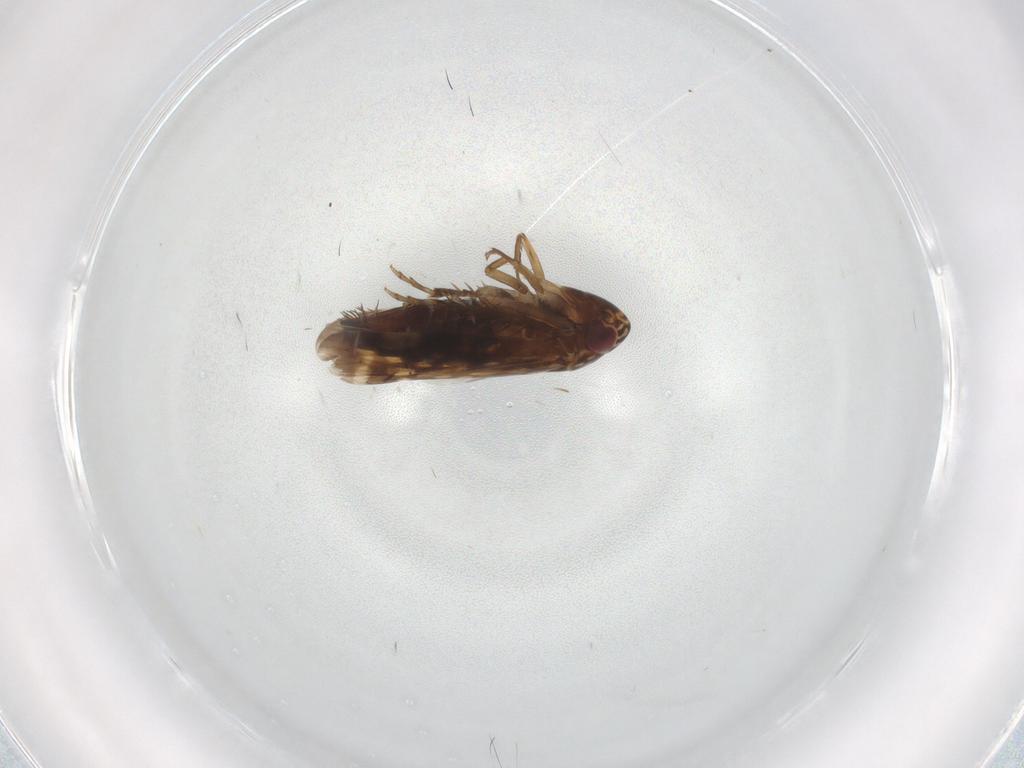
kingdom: Animalia
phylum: Arthropoda
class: Insecta
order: Hemiptera
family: Cicadellidae
